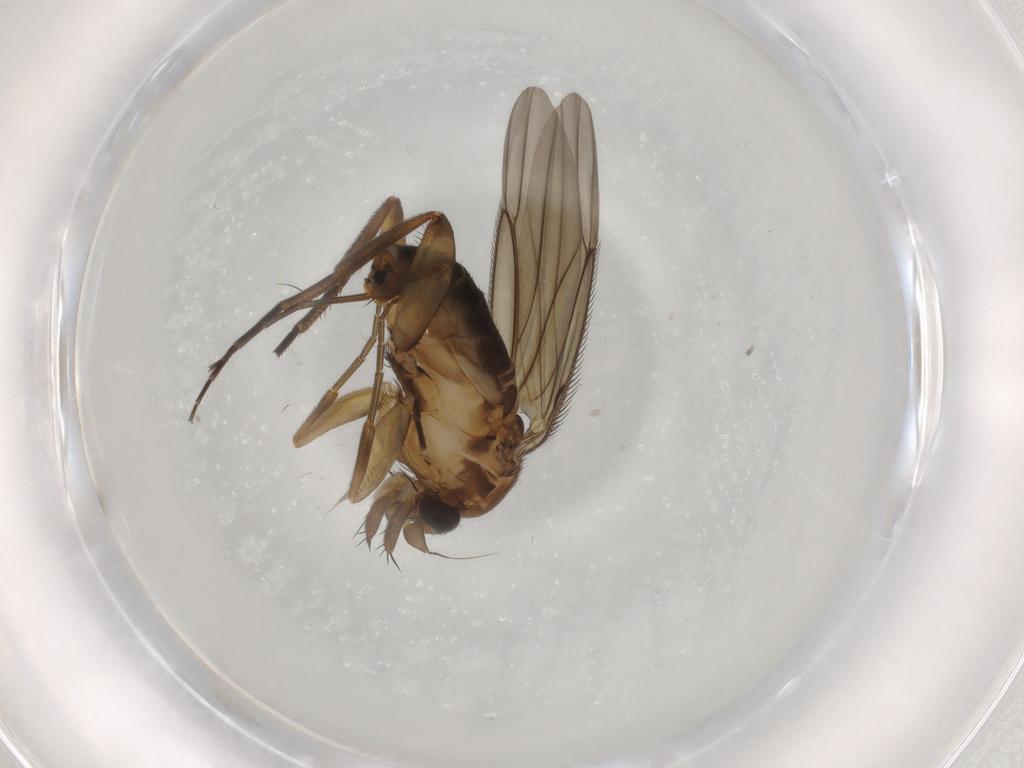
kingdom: Animalia
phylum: Arthropoda
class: Insecta
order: Diptera
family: Phoridae
